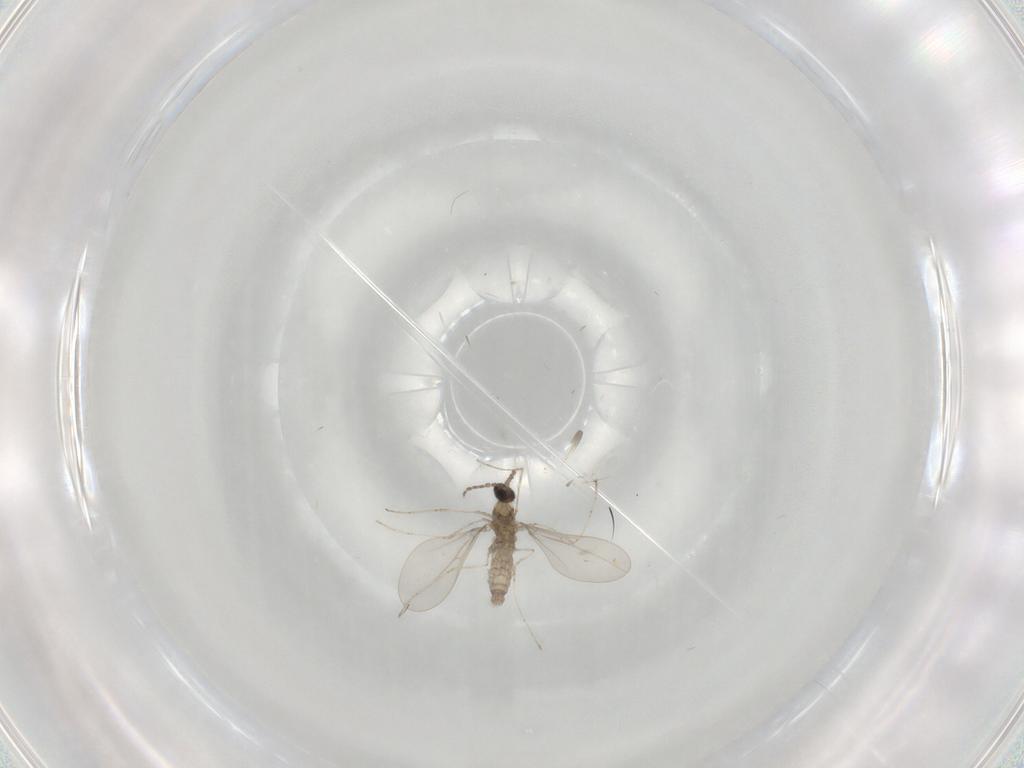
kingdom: Animalia
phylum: Arthropoda
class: Insecta
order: Diptera
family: Cecidomyiidae
